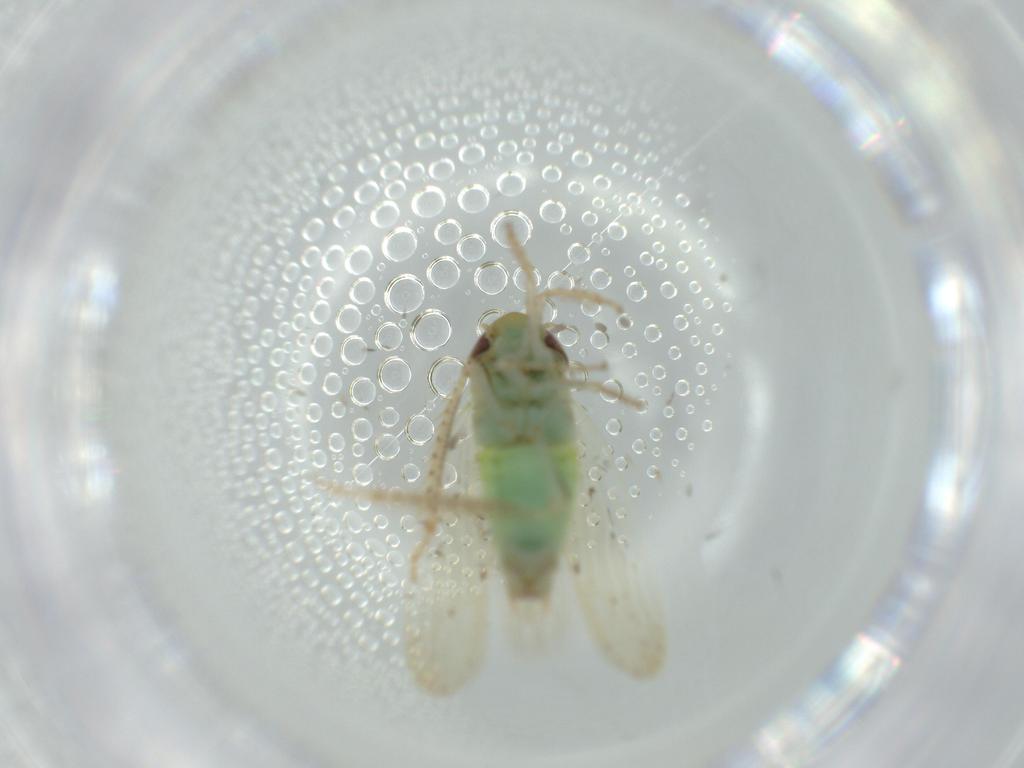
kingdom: Animalia
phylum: Arthropoda
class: Insecta
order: Hemiptera
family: Cicadellidae
